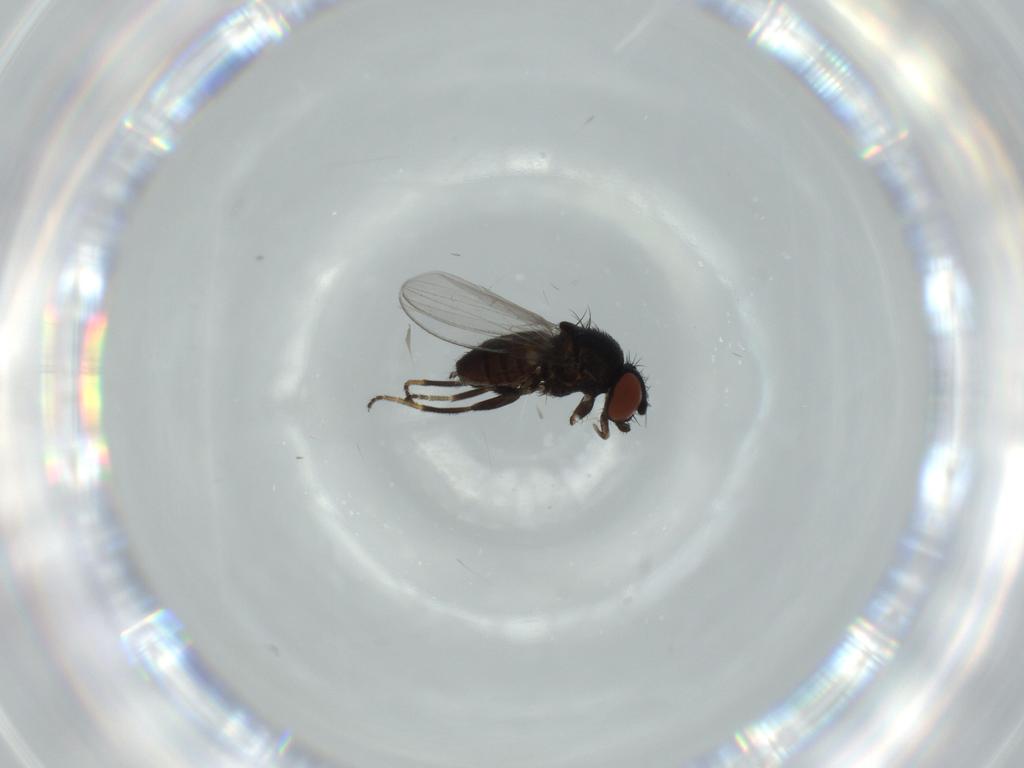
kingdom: Animalia
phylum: Arthropoda
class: Insecta
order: Diptera
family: Milichiidae
